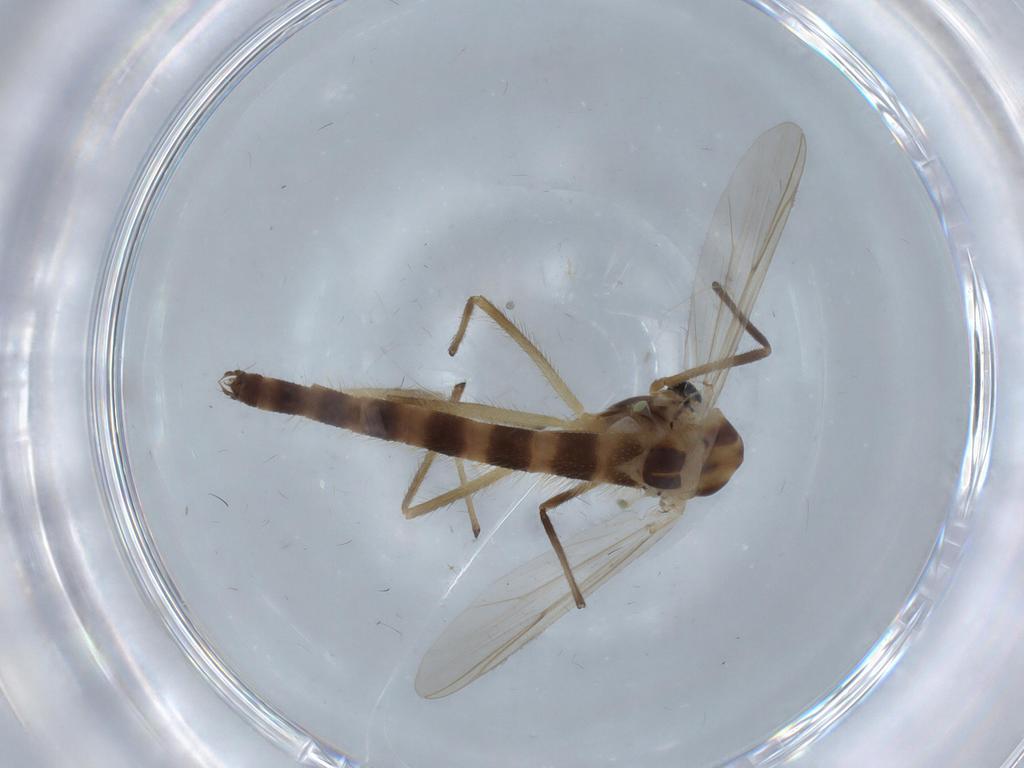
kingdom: Animalia
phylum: Arthropoda
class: Insecta
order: Diptera
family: Chironomidae
